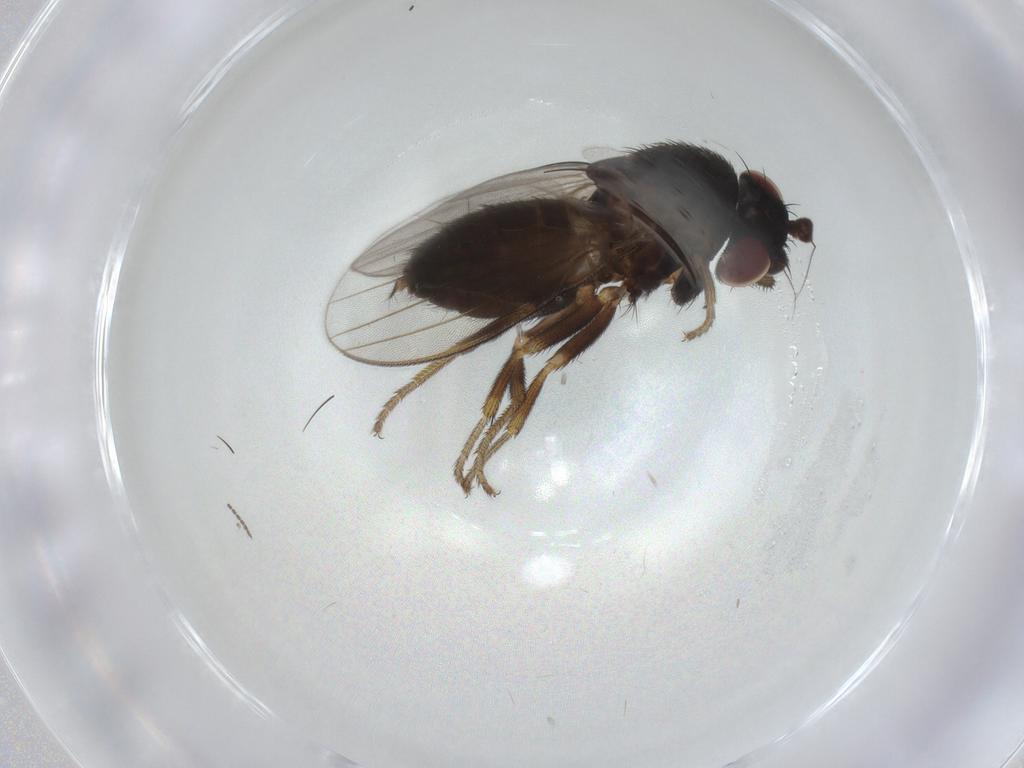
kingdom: Animalia
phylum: Arthropoda
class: Insecta
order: Diptera
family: Milichiidae
